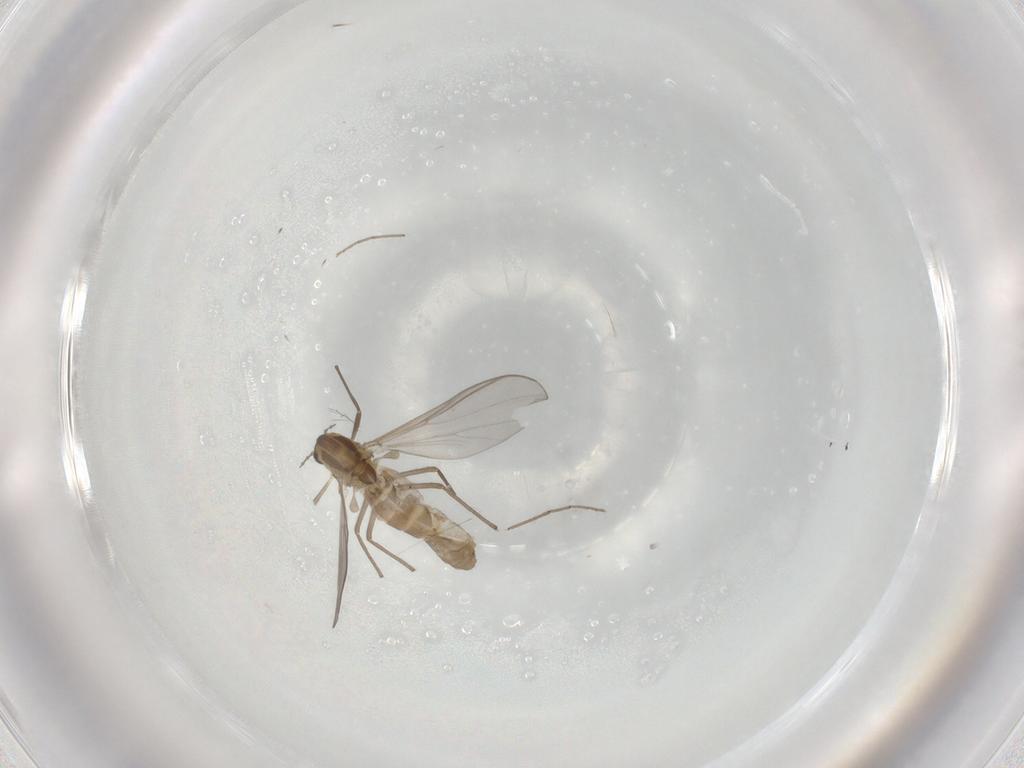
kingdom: Animalia
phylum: Arthropoda
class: Insecta
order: Diptera
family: Chironomidae
